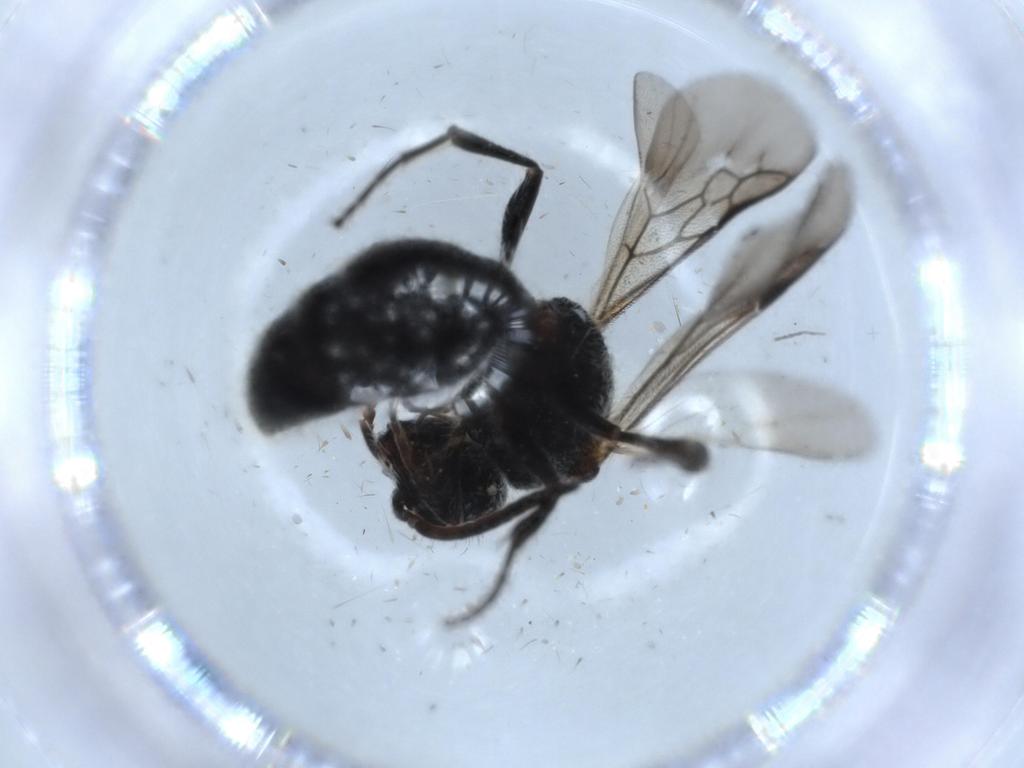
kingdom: Animalia
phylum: Arthropoda
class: Insecta
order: Hymenoptera
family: Mutillidae
